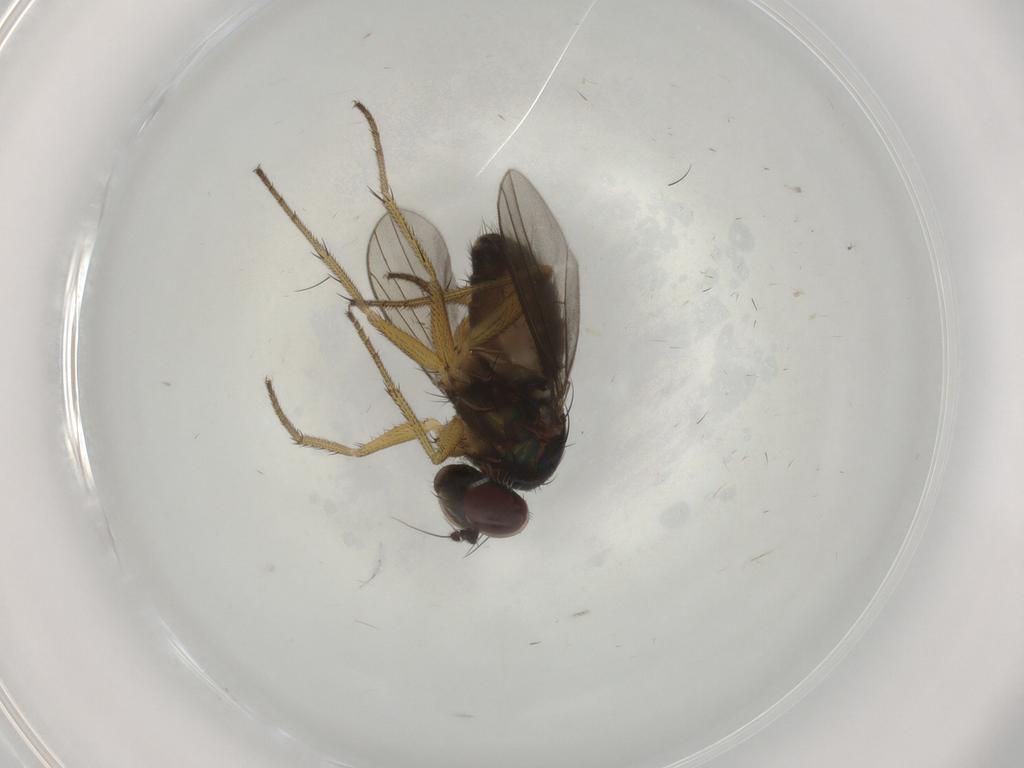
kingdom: Animalia
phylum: Arthropoda
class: Insecta
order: Diptera
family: Dolichopodidae
